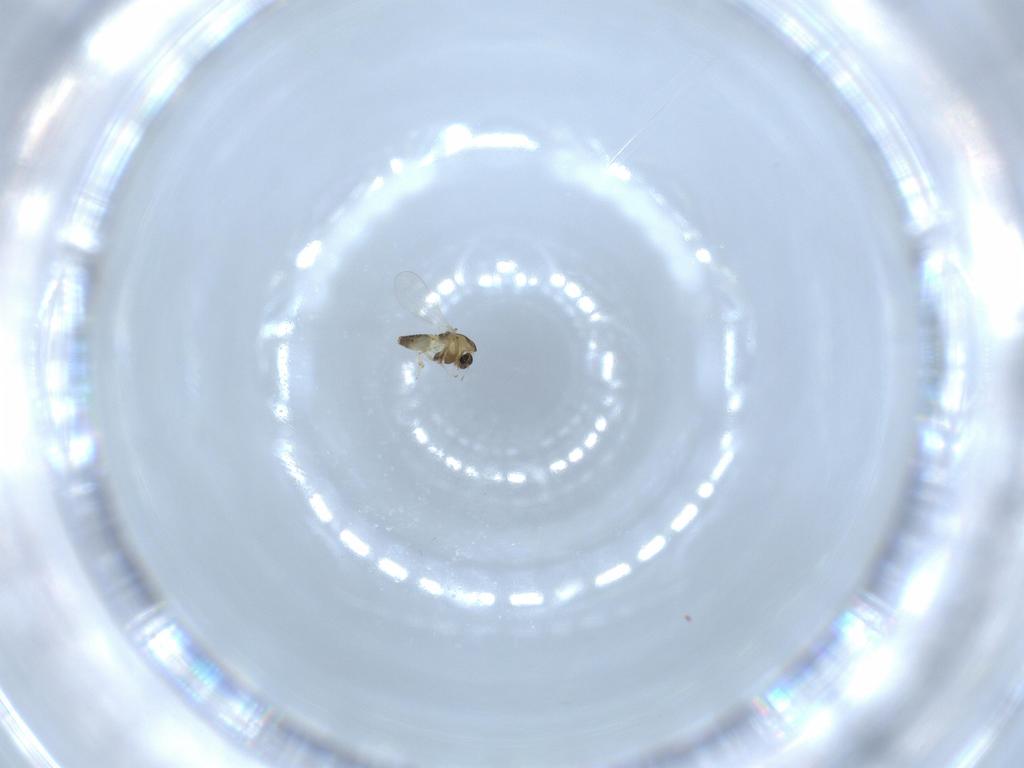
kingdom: Animalia
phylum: Arthropoda
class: Insecta
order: Diptera
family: Chironomidae
